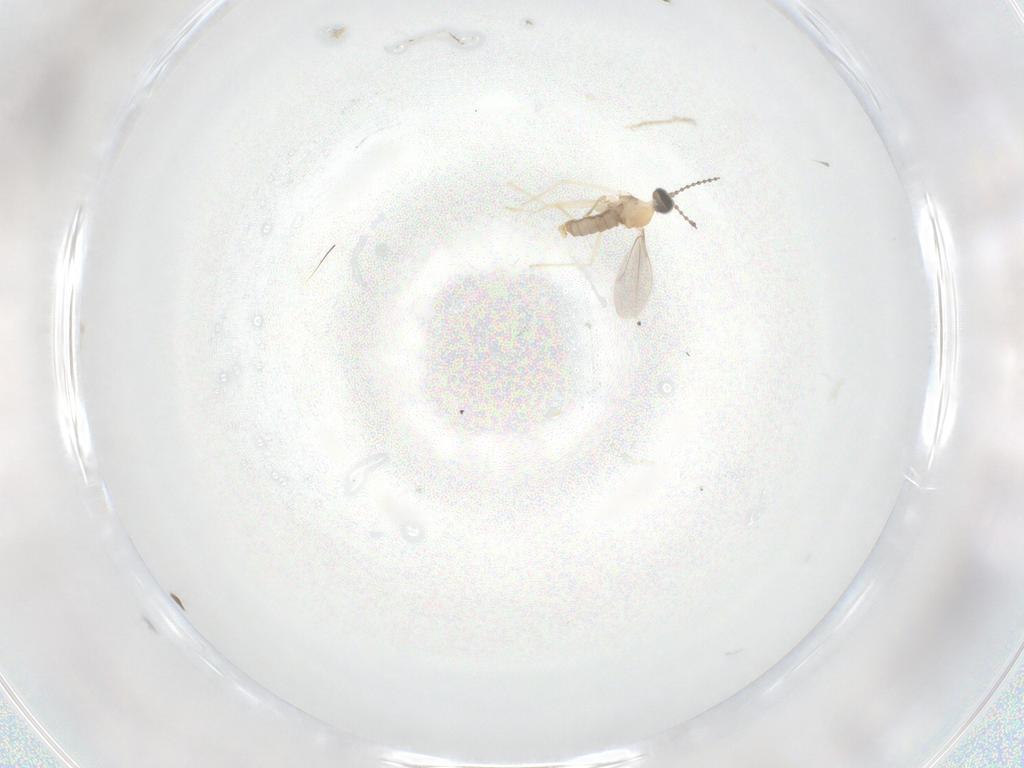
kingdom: Animalia
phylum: Arthropoda
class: Insecta
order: Diptera
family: Cecidomyiidae
